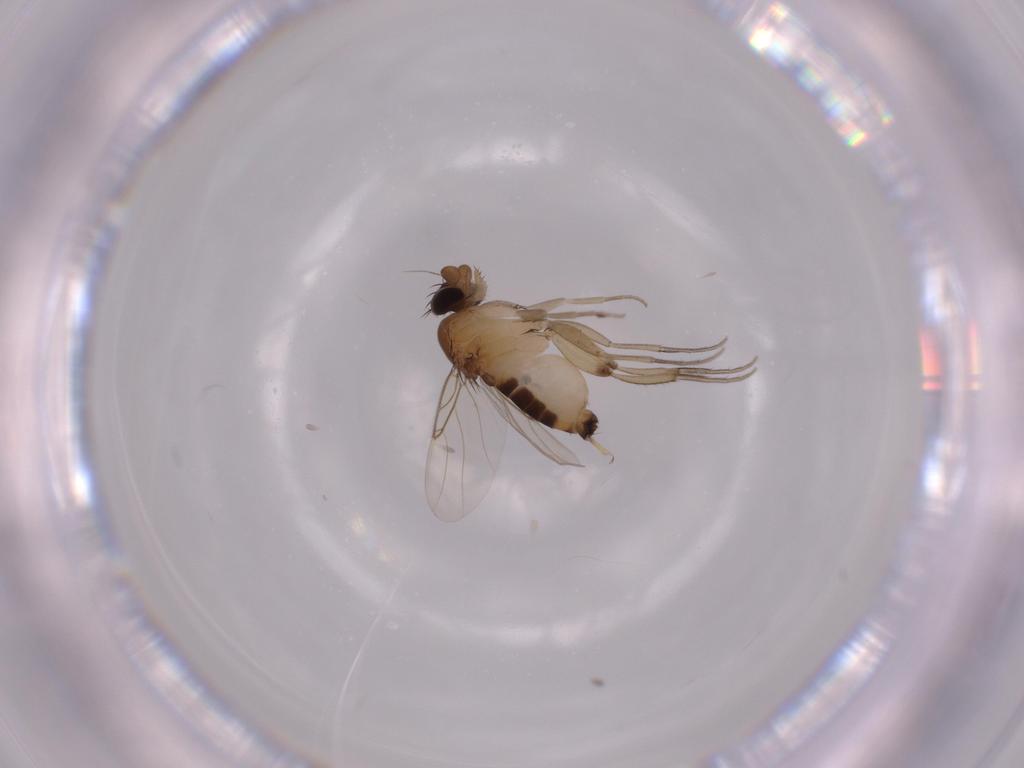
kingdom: Animalia
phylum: Arthropoda
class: Insecta
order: Diptera
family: Phoridae
